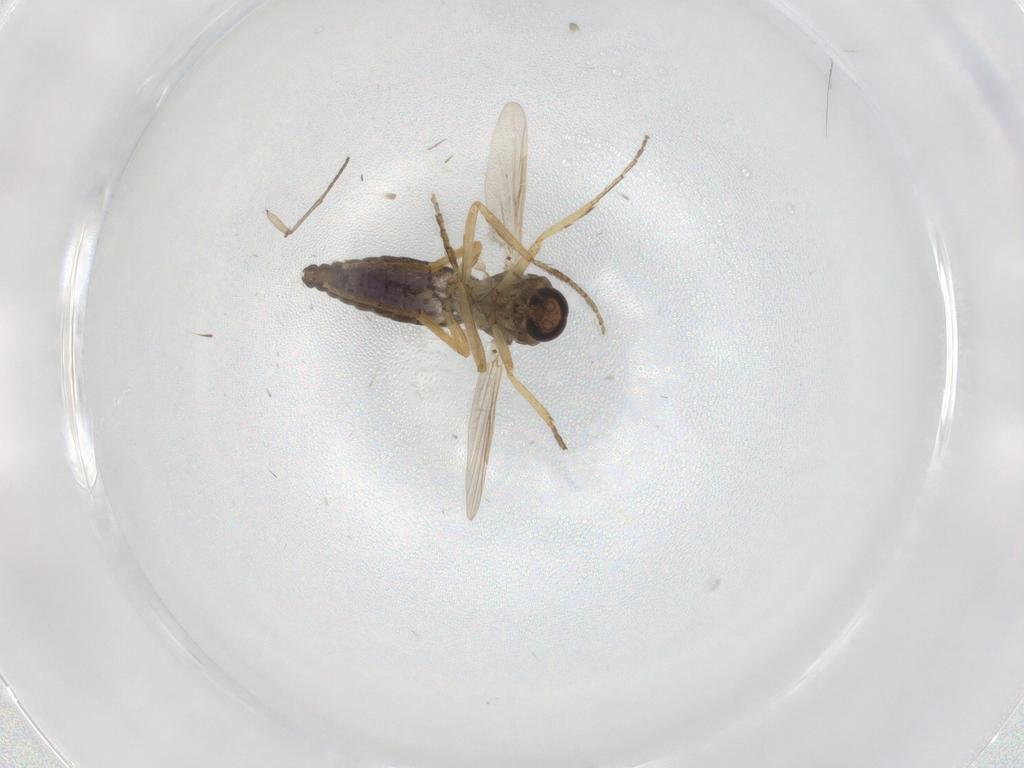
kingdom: Animalia
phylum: Arthropoda
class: Insecta
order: Diptera
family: Ceratopogonidae
